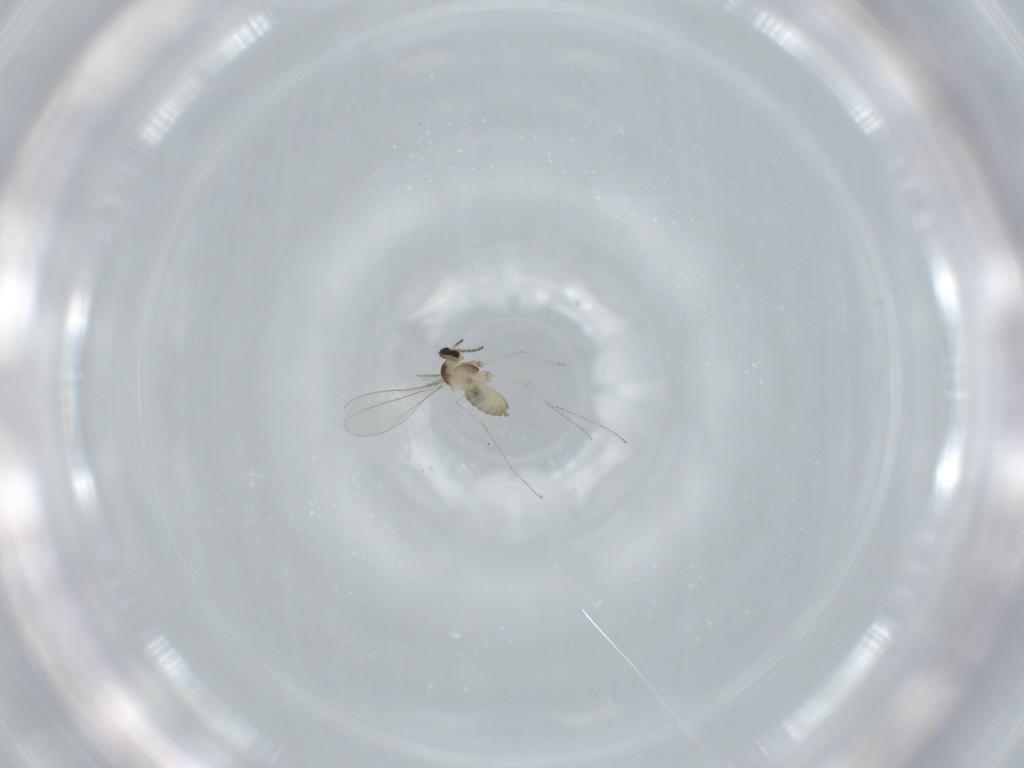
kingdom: Animalia
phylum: Arthropoda
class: Insecta
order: Diptera
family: Cecidomyiidae
